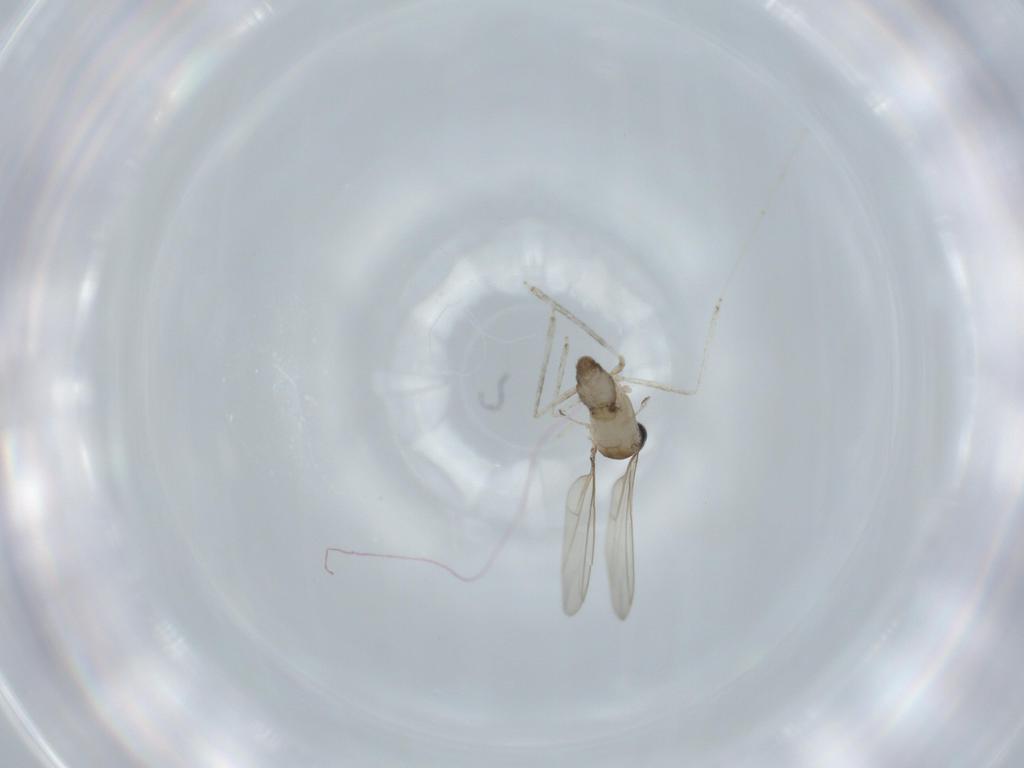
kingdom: Animalia
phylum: Arthropoda
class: Insecta
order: Diptera
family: Cecidomyiidae
